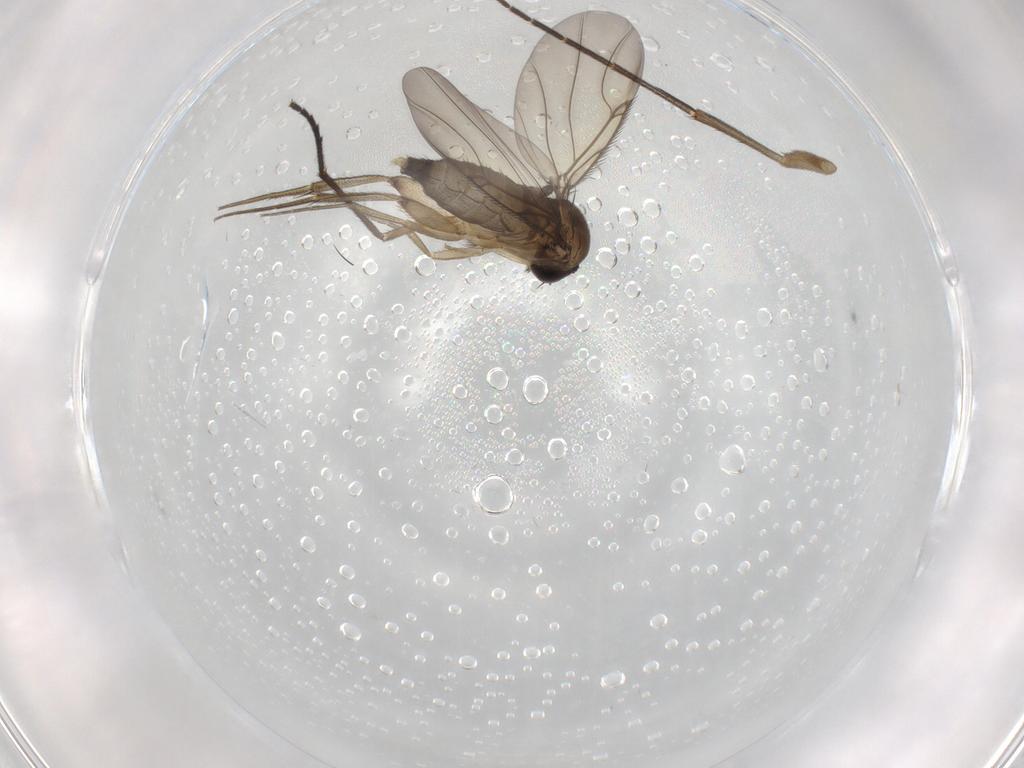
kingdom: Animalia
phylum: Arthropoda
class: Insecta
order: Diptera
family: Phoridae
